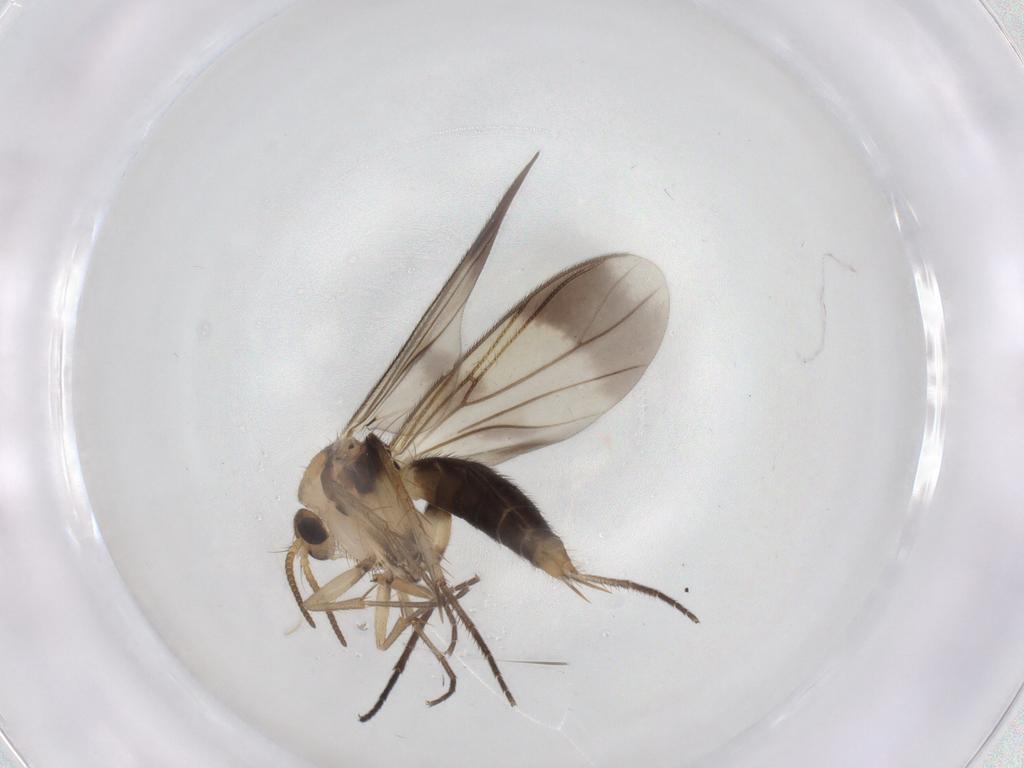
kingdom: Animalia
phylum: Arthropoda
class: Insecta
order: Diptera
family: Mycetophilidae
